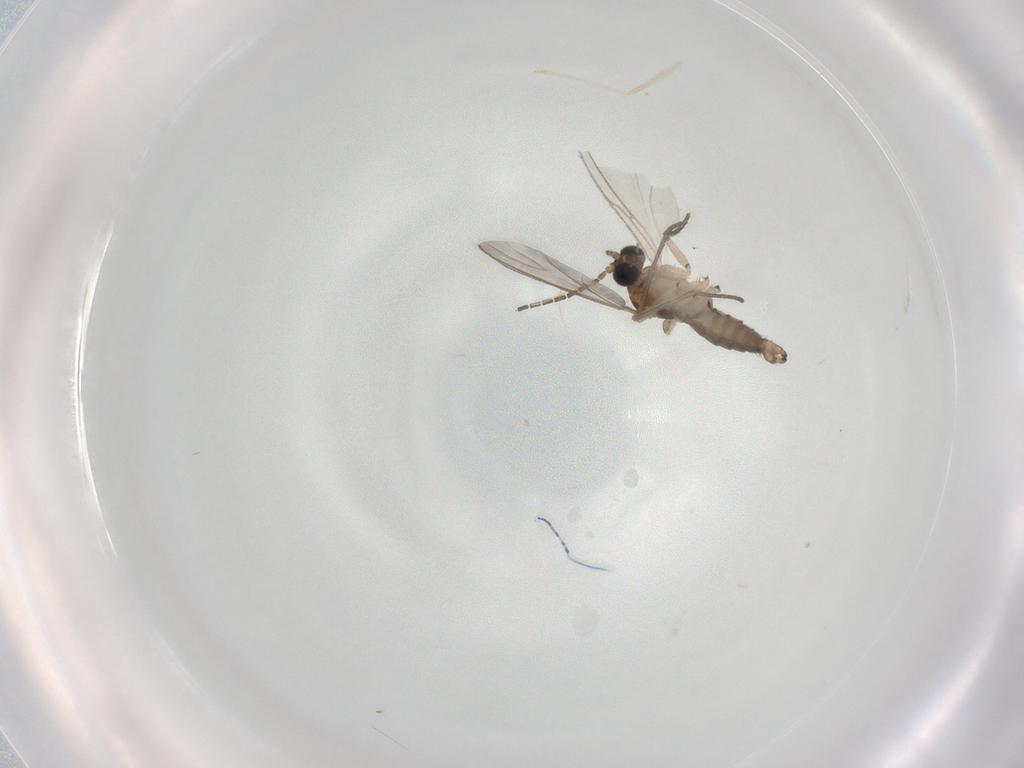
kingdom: Animalia
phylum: Arthropoda
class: Insecta
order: Diptera
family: Sciaridae
